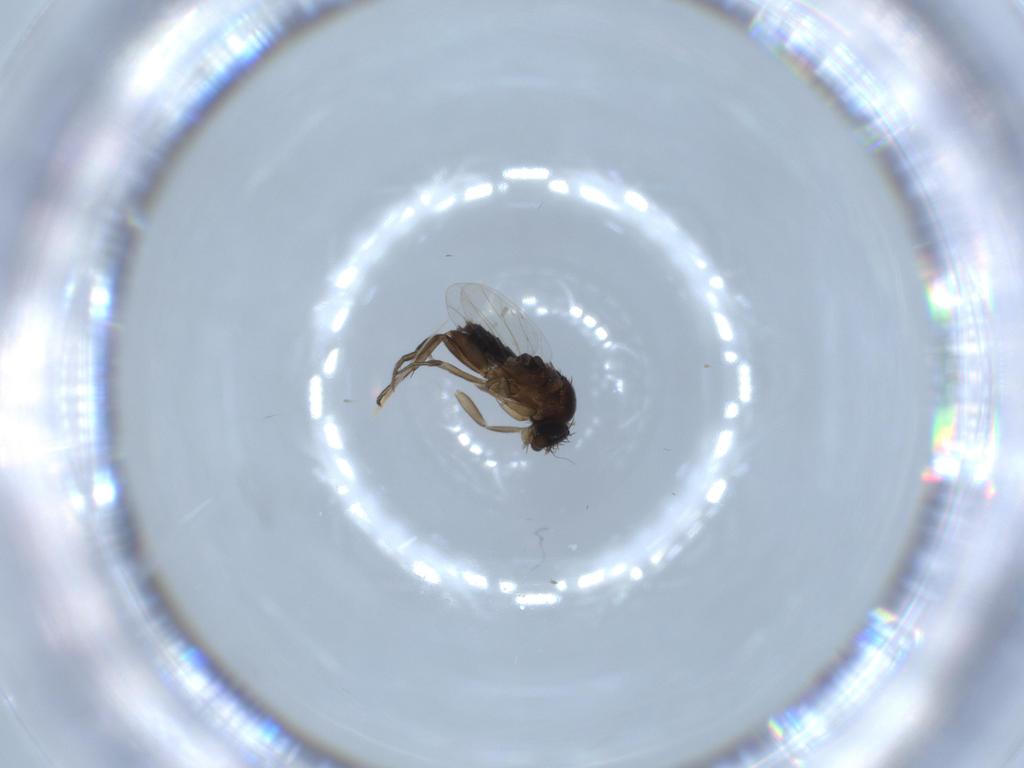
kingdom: Animalia
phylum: Arthropoda
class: Insecta
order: Diptera
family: Phoridae
